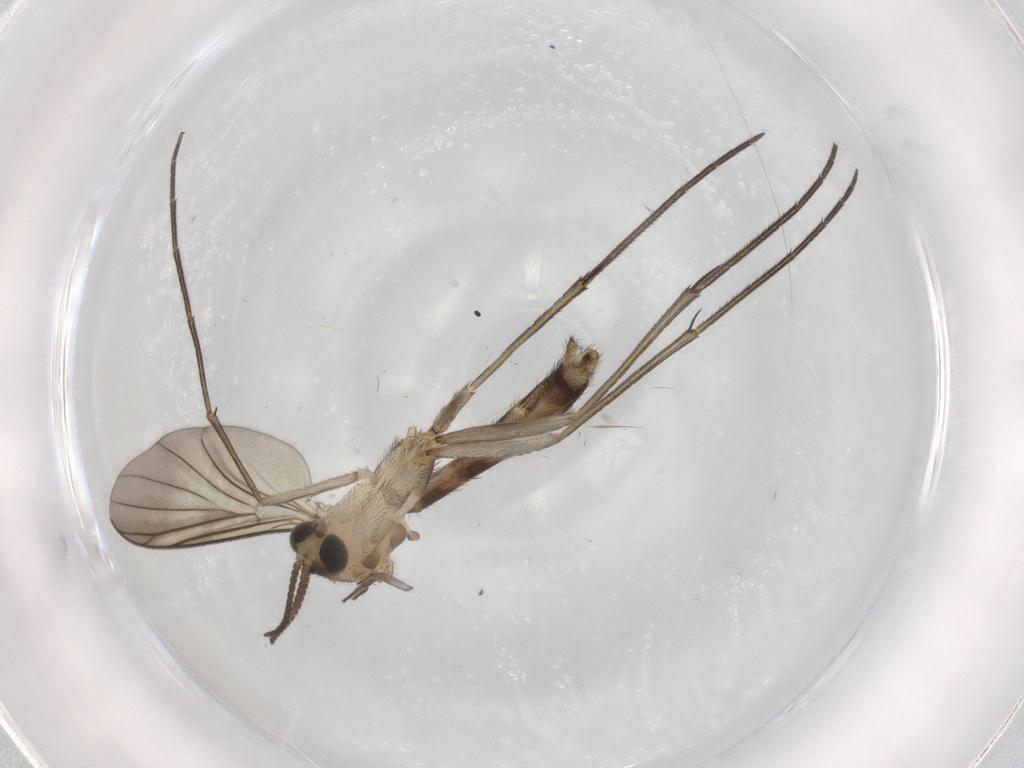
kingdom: Animalia
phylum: Arthropoda
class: Insecta
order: Diptera
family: Mycetophilidae
